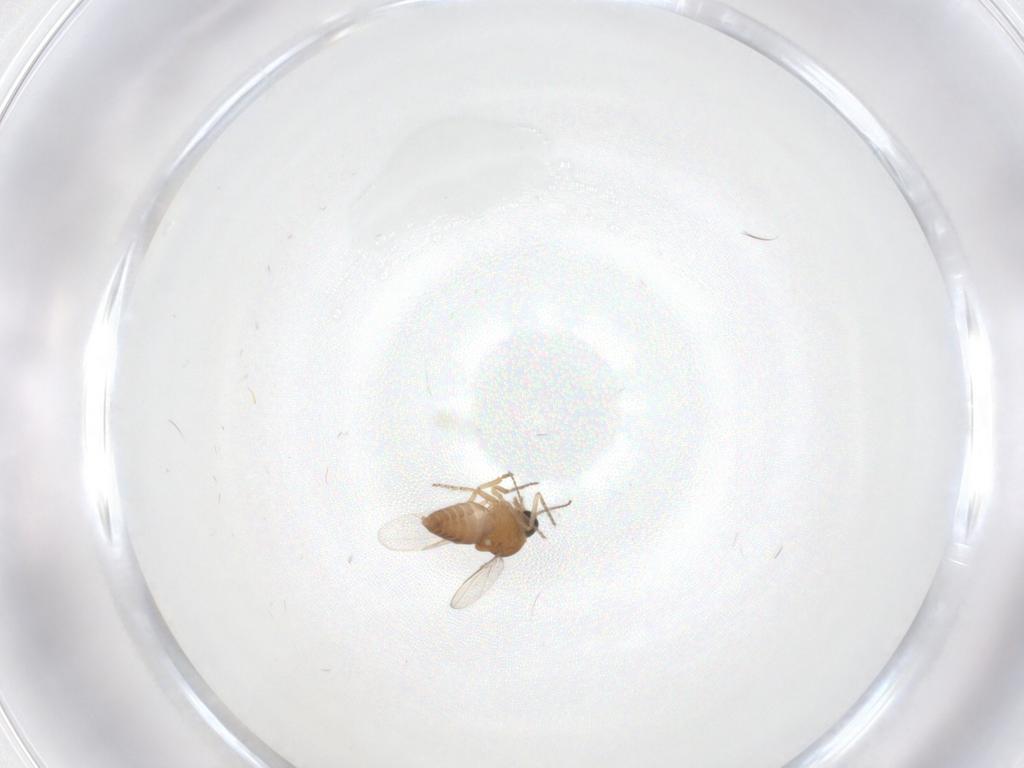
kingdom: Animalia
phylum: Arthropoda
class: Insecta
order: Diptera
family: Ceratopogonidae
